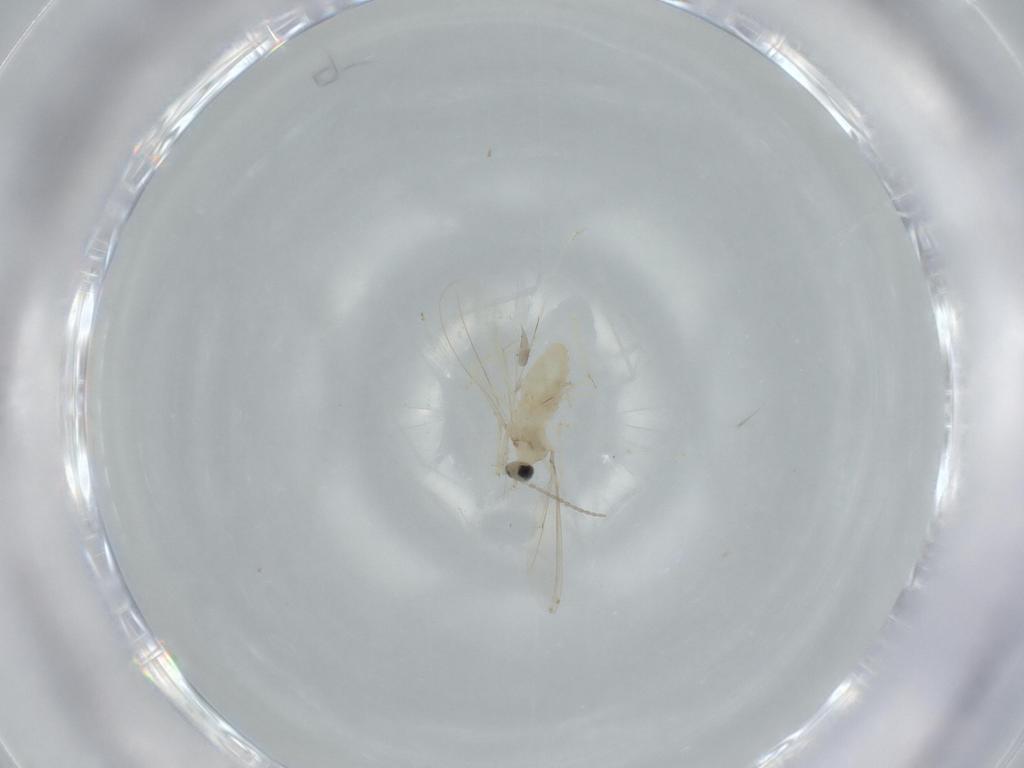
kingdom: Animalia
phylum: Arthropoda
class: Insecta
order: Diptera
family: Cecidomyiidae
